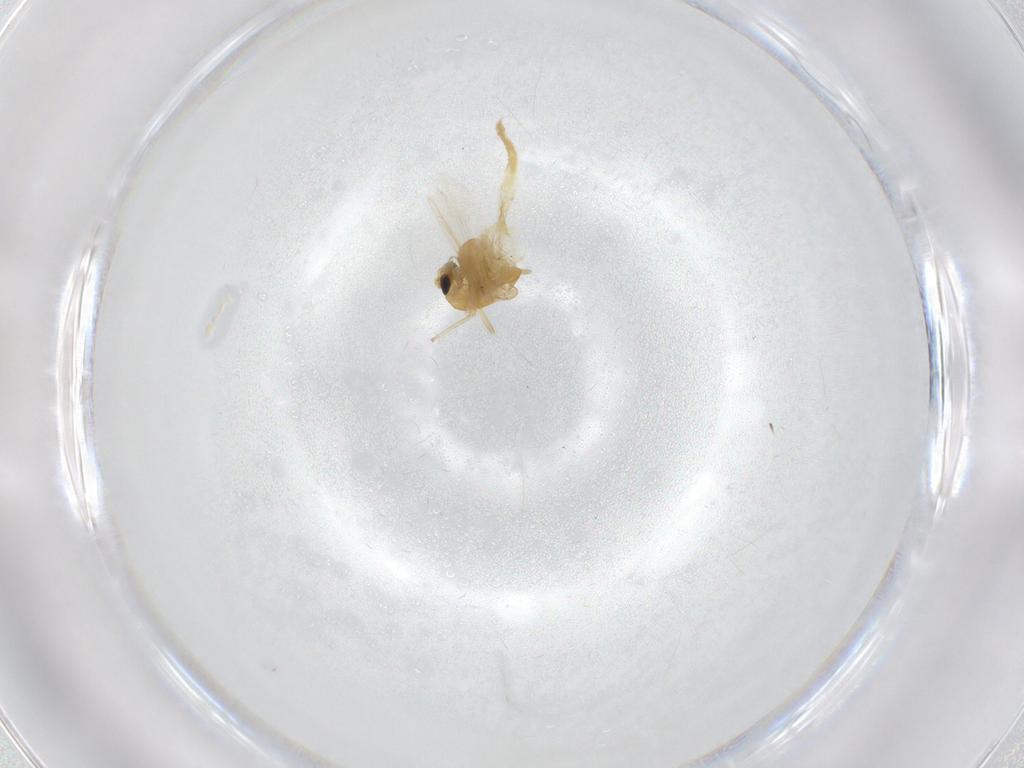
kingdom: Animalia
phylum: Arthropoda
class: Insecta
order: Diptera
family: Chironomidae
